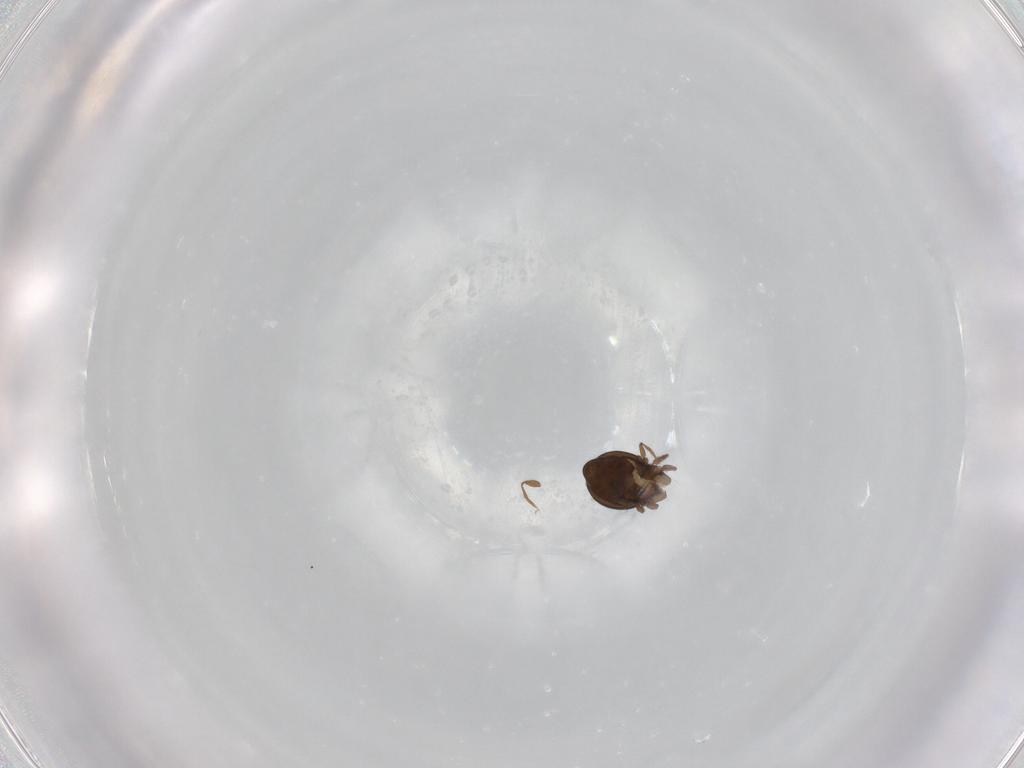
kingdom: Animalia
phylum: Arthropoda
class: Arachnida
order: Sarcoptiformes
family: Oribatulidae
